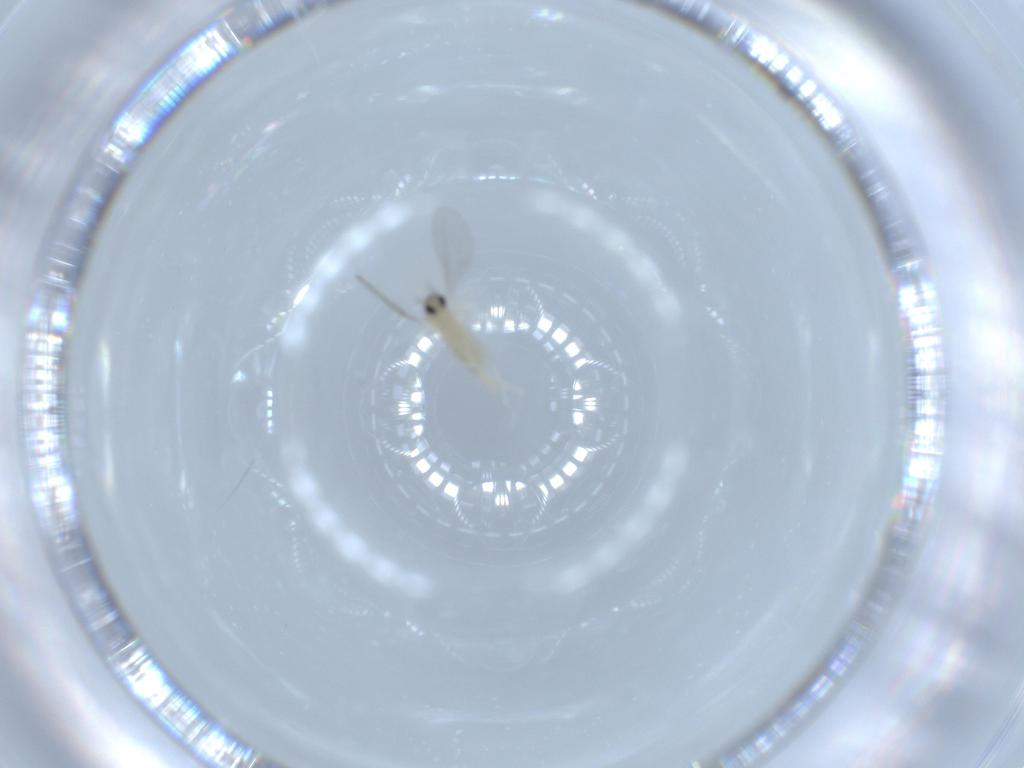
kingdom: Animalia
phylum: Arthropoda
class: Insecta
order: Diptera
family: Cecidomyiidae
